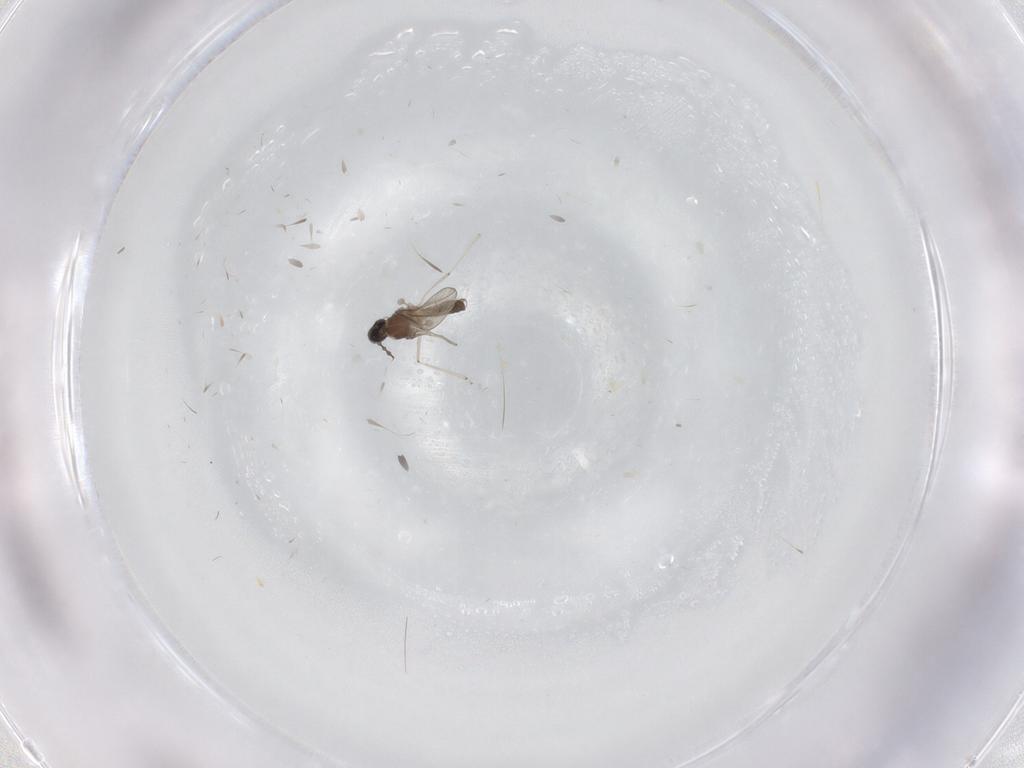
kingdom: Animalia
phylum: Arthropoda
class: Insecta
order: Diptera
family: Cecidomyiidae
